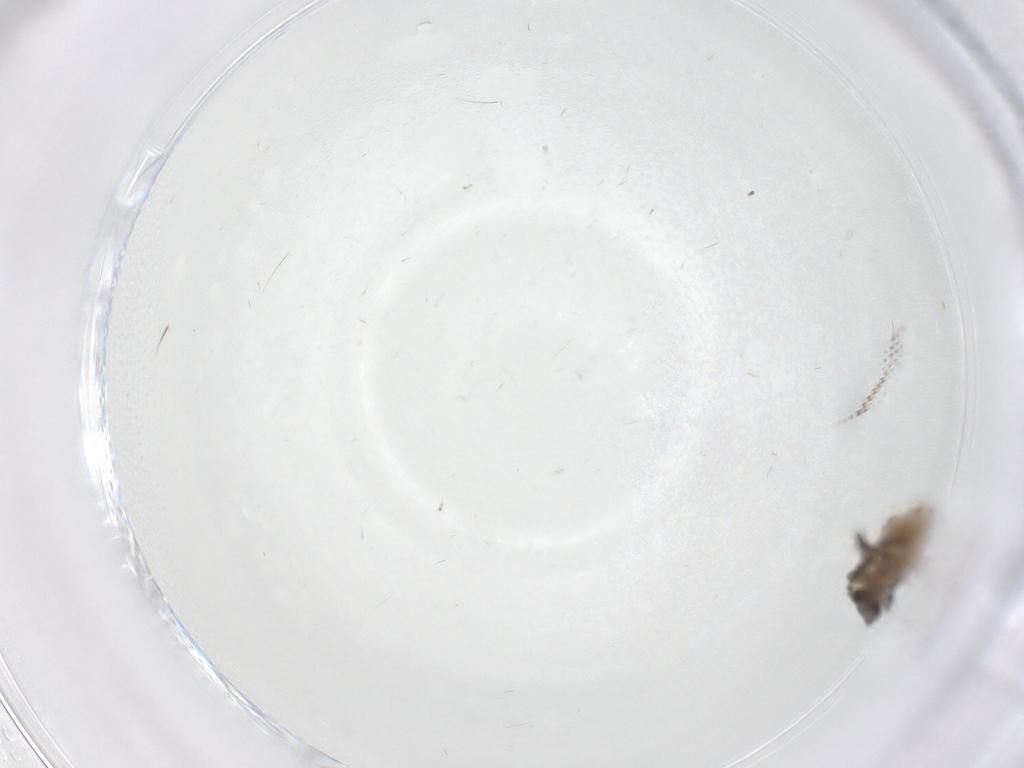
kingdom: Animalia
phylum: Arthropoda
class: Insecta
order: Diptera
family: Psychodidae
